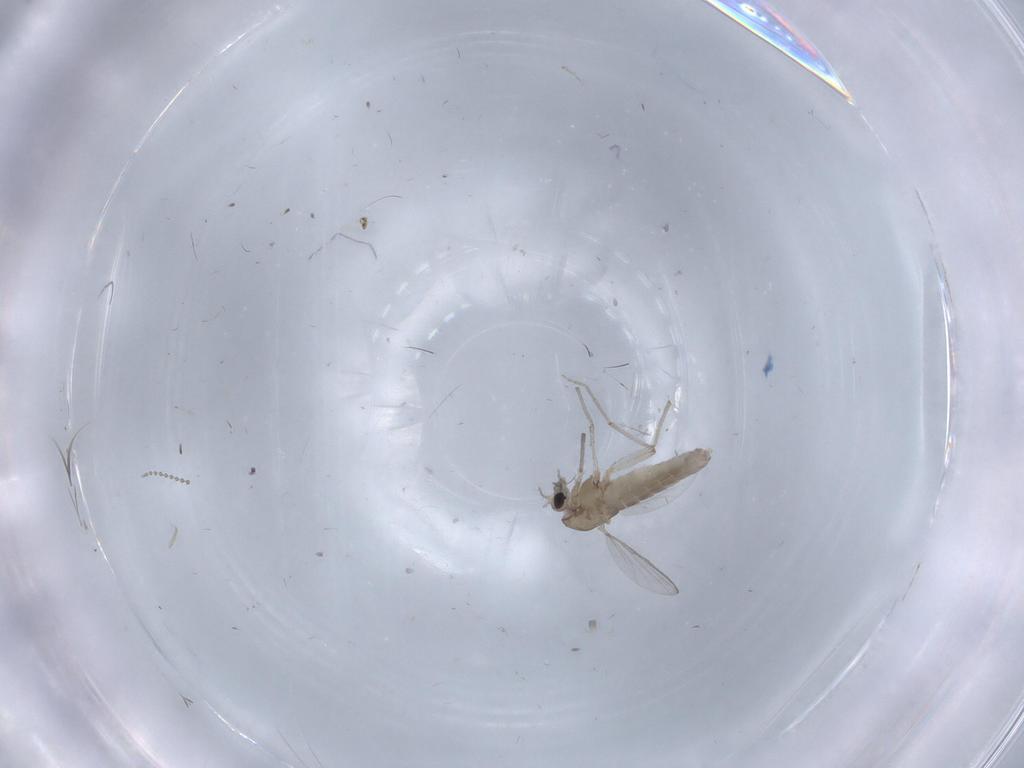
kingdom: Animalia
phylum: Arthropoda
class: Insecta
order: Diptera
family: Chironomidae
